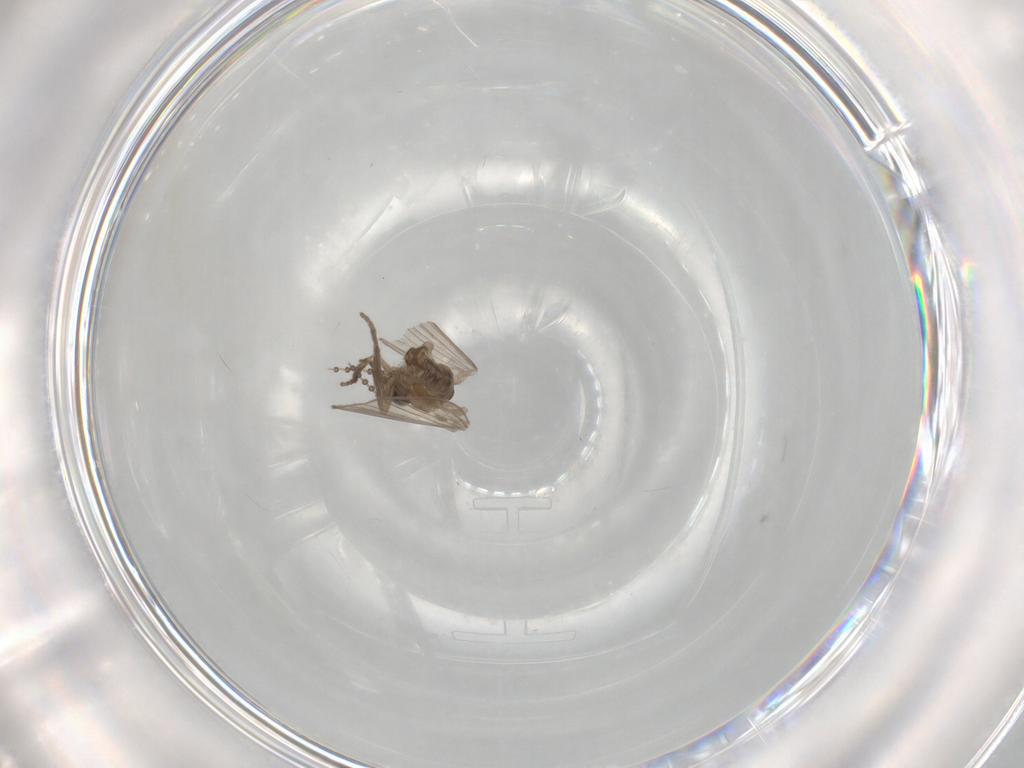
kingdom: Animalia
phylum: Arthropoda
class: Insecta
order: Diptera
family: Psychodidae
